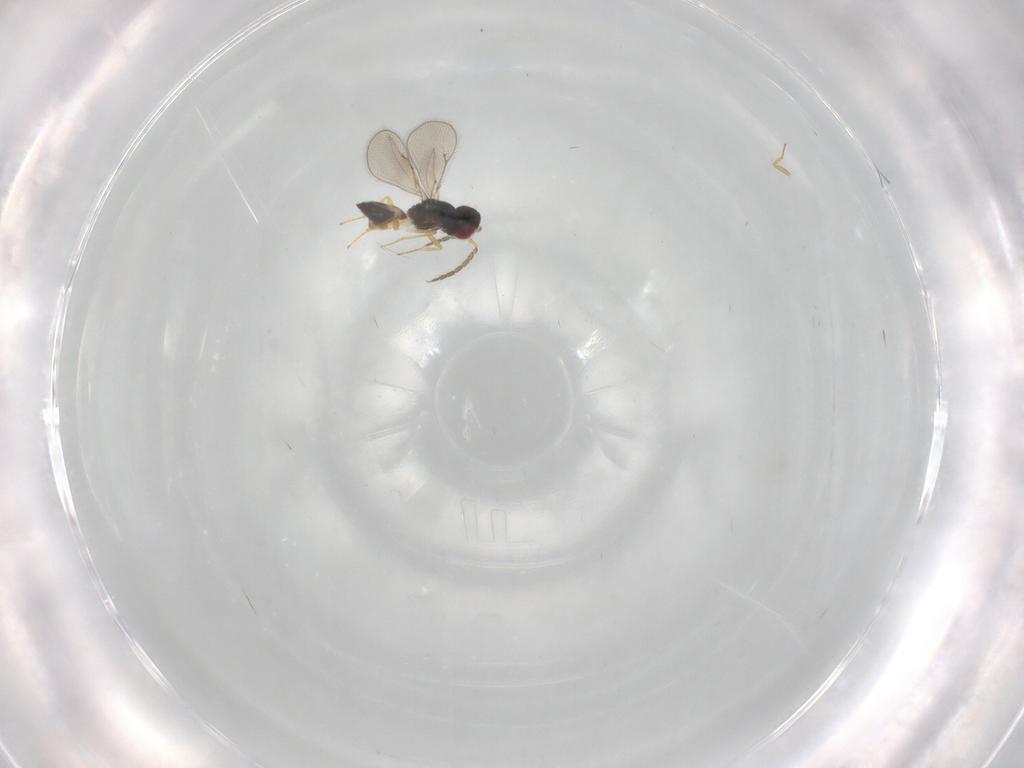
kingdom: Animalia
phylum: Arthropoda
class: Insecta
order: Hymenoptera
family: Eulophidae
